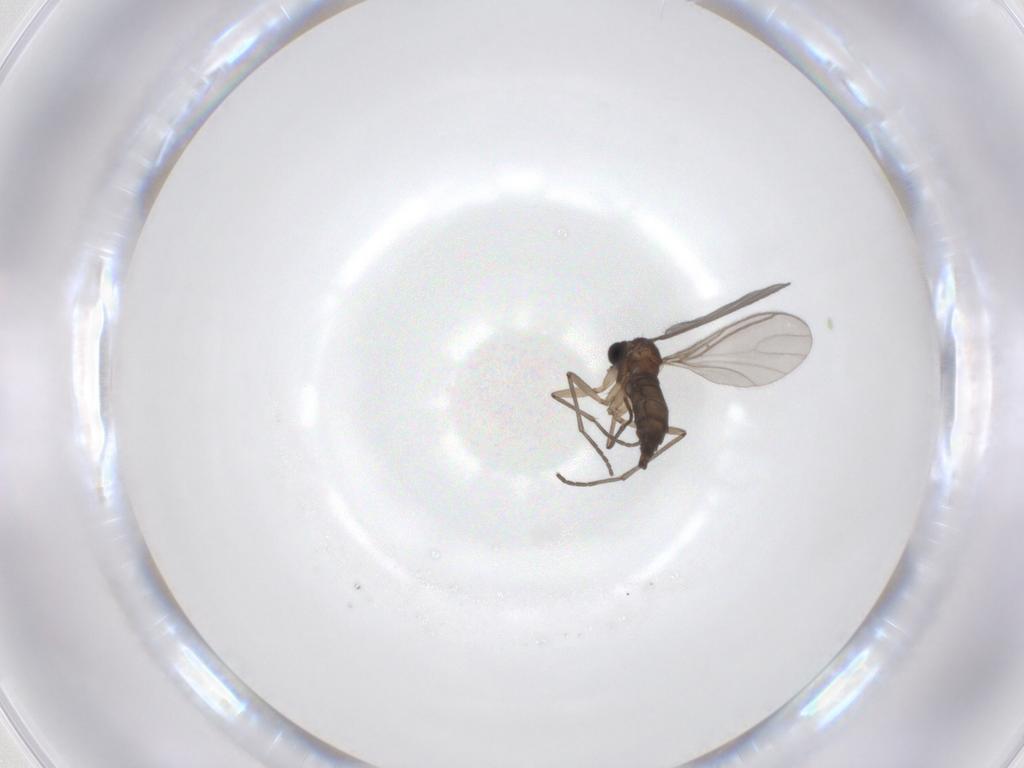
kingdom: Animalia
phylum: Arthropoda
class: Insecta
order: Diptera
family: Sciaridae
